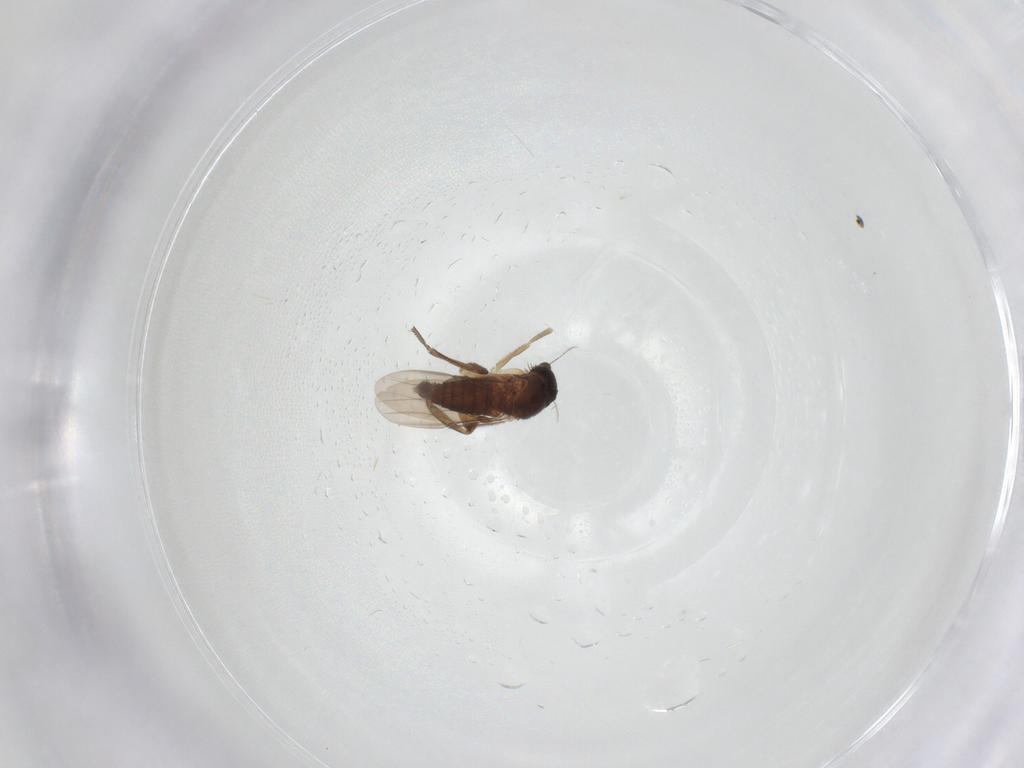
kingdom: Animalia
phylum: Arthropoda
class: Insecta
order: Diptera
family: Phoridae
